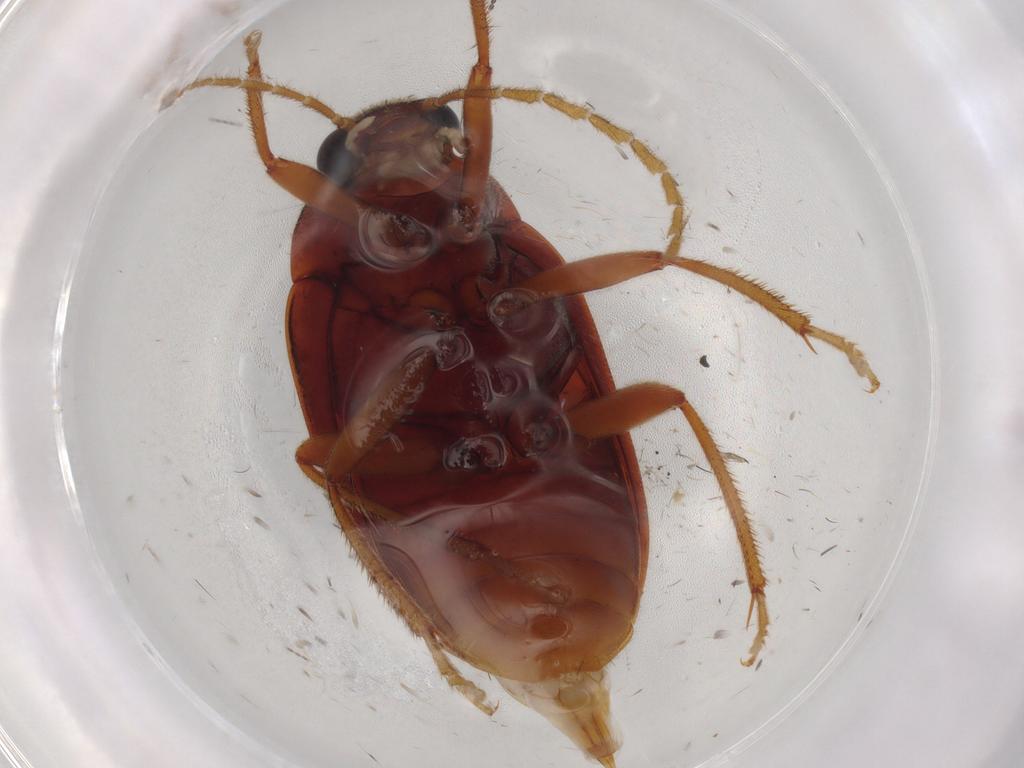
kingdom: Animalia
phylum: Arthropoda
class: Insecta
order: Coleoptera
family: Ptilodactylidae
